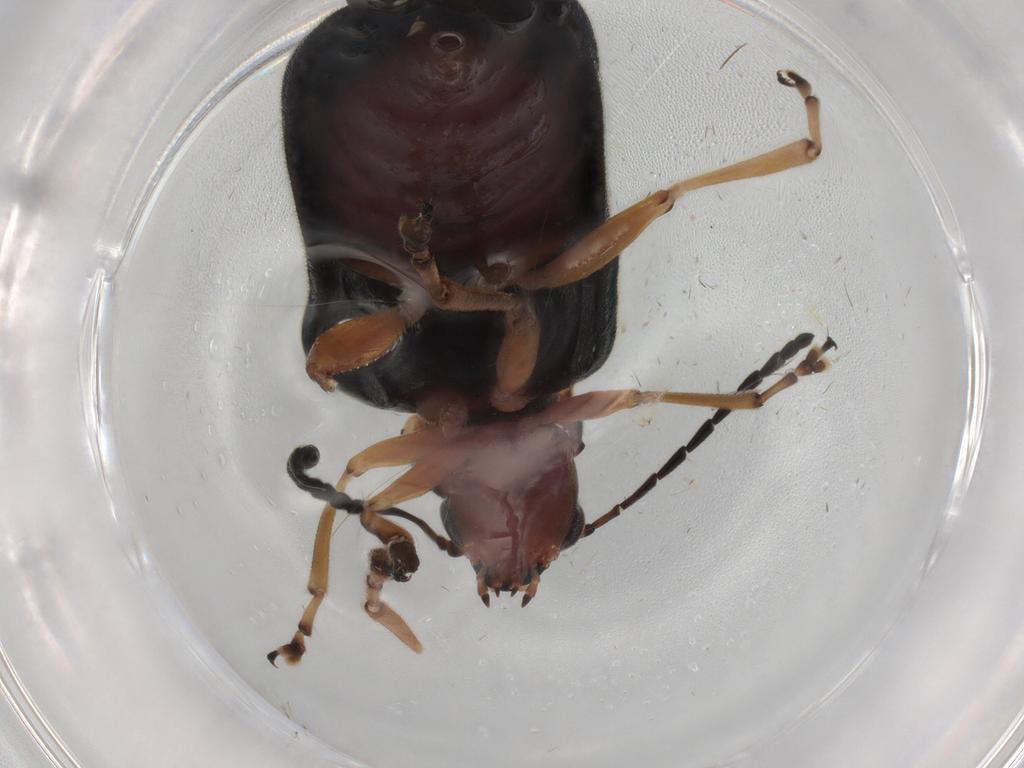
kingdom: Animalia
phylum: Arthropoda
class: Insecta
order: Coleoptera
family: Chrysomelidae
